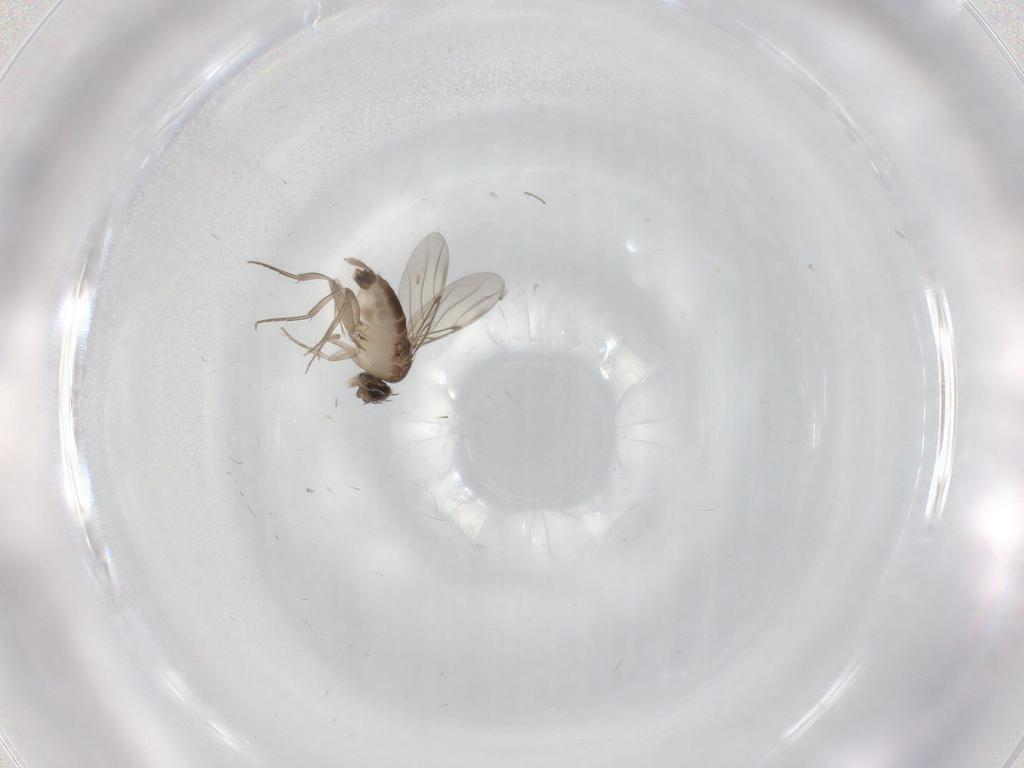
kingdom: Animalia
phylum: Arthropoda
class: Insecta
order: Diptera
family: Phoridae
